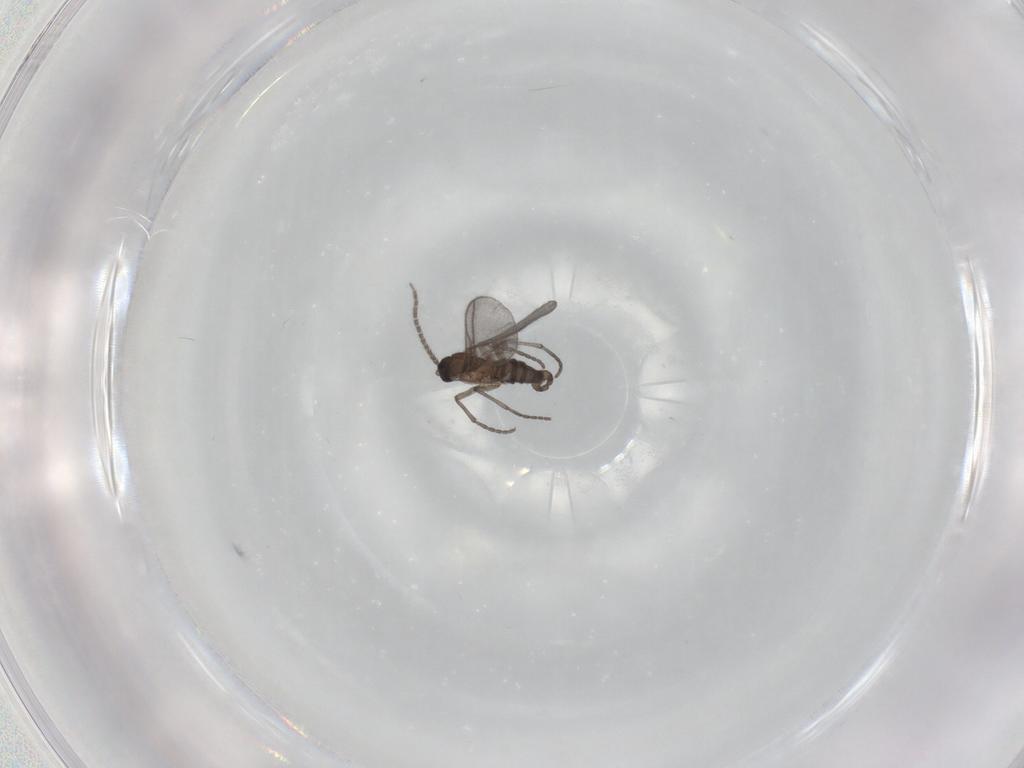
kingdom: Animalia
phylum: Arthropoda
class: Insecta
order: Diptera
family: Sciaridae
